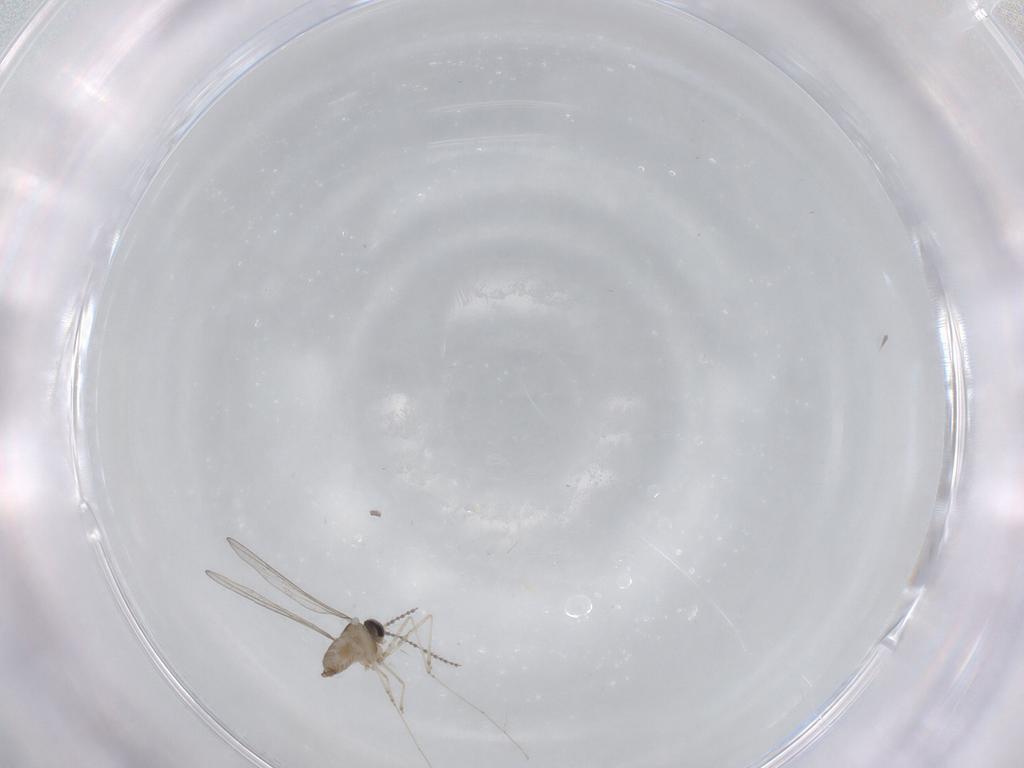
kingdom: Animalia
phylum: Arthropoda
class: Insecta
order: Diptera
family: Cecidomyiidae
